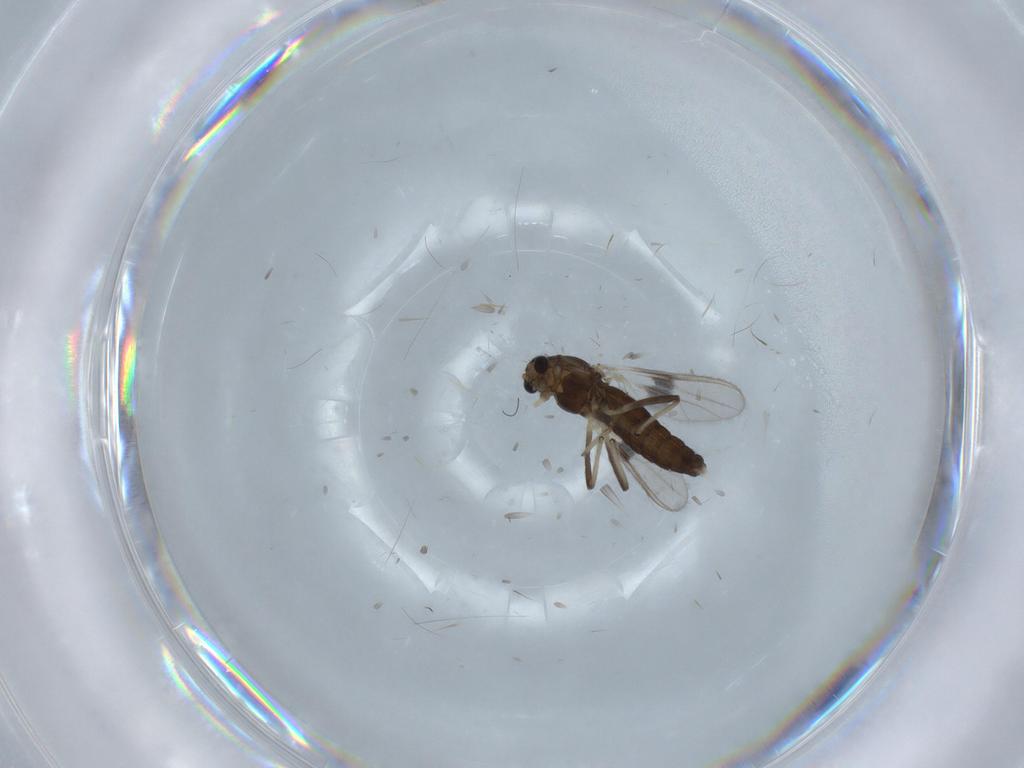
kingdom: Animalia
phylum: Arthropoda
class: Insecta
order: Diptera
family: Chironomidae
